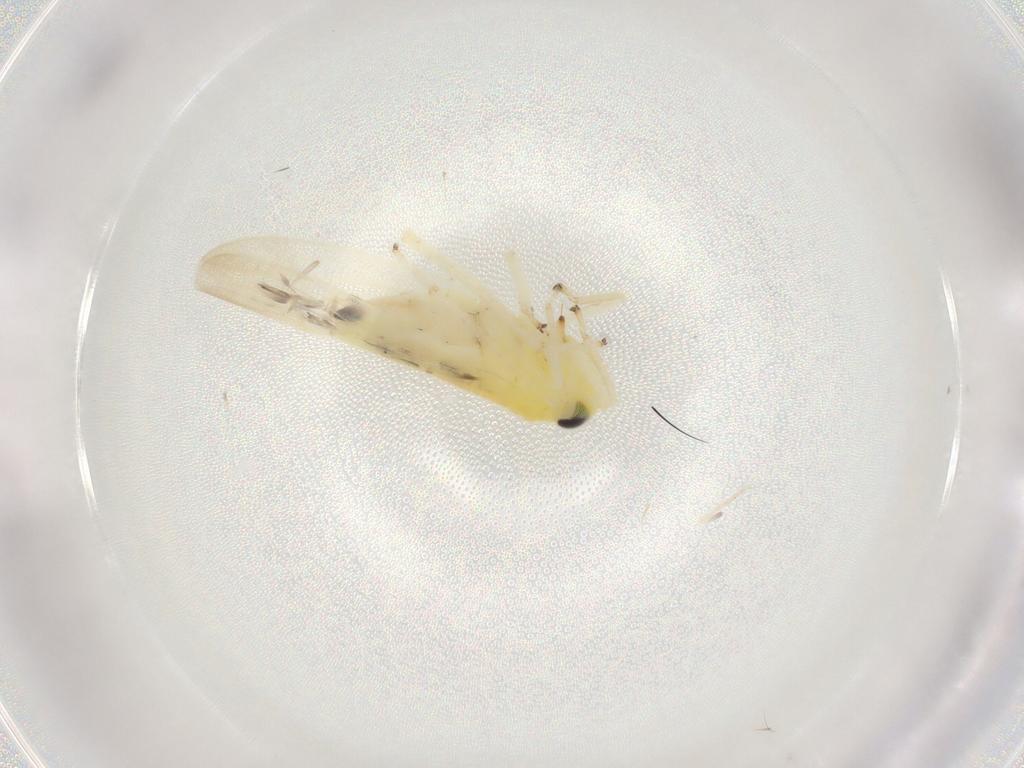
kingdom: Animalia
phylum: Arthropoda
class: Insecta
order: Hemiptera
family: Cicadellidae
